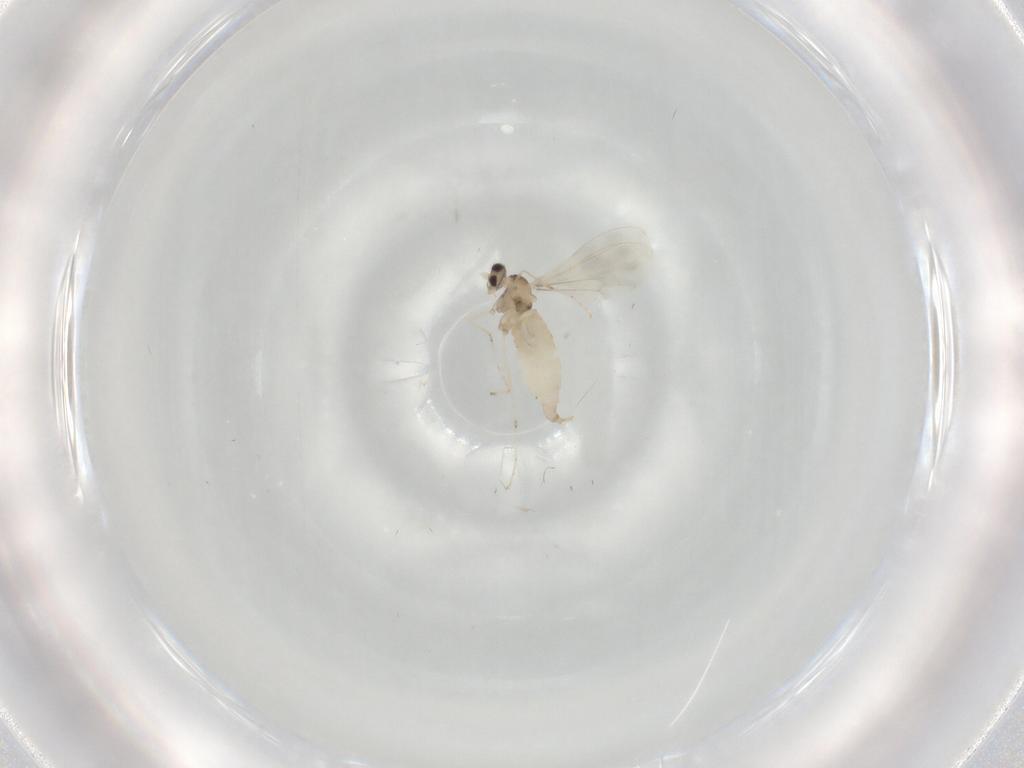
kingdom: Animalia
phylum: Arthropoda
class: Insecta
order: Diptera
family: Cecidomyiidae
